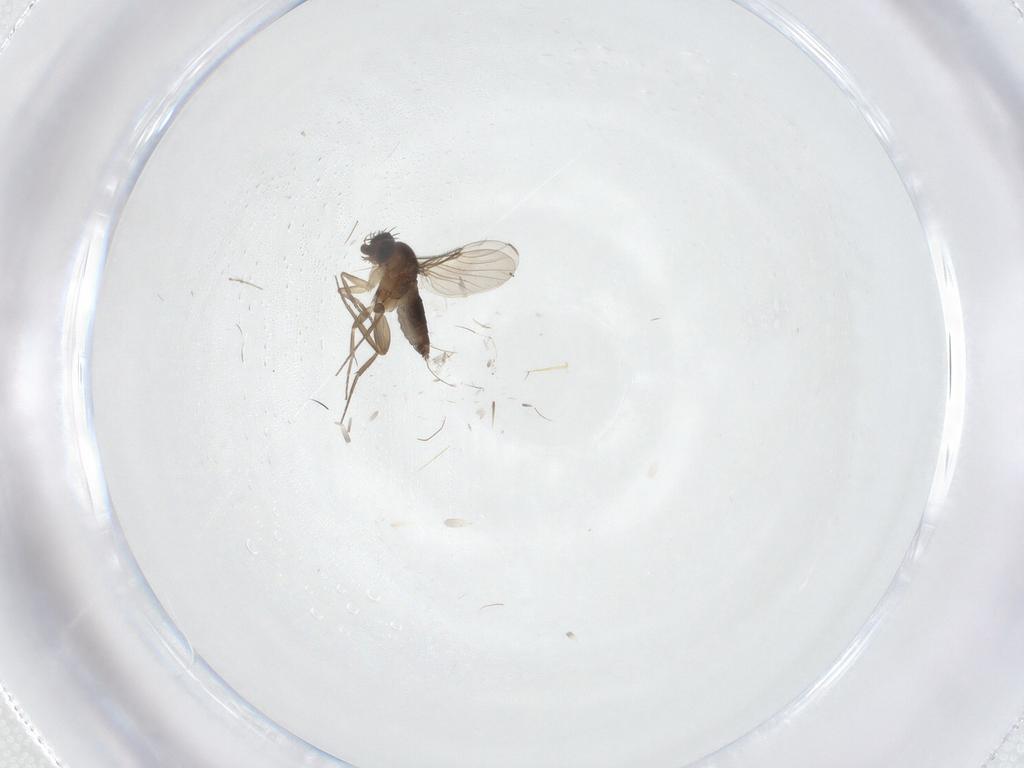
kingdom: Animalia
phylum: Arthropoda
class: Insecta
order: Diptera
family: Phoridae
